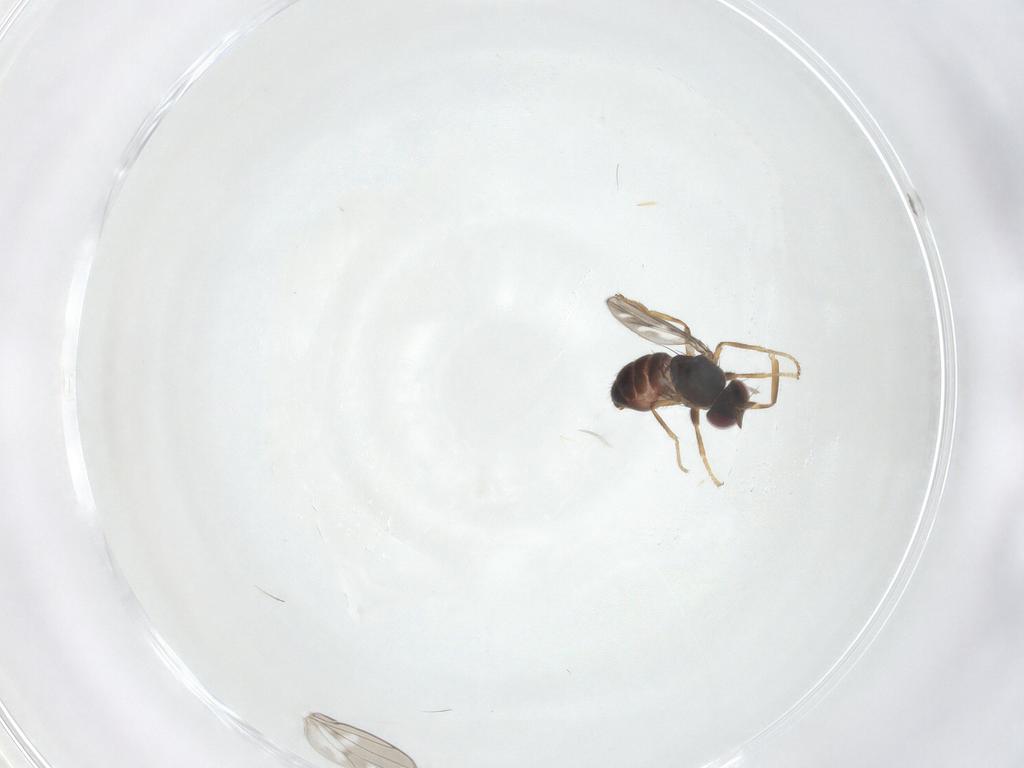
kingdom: Animalia
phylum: Arthropoda
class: Insecta
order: Diptera
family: Ephydridae
